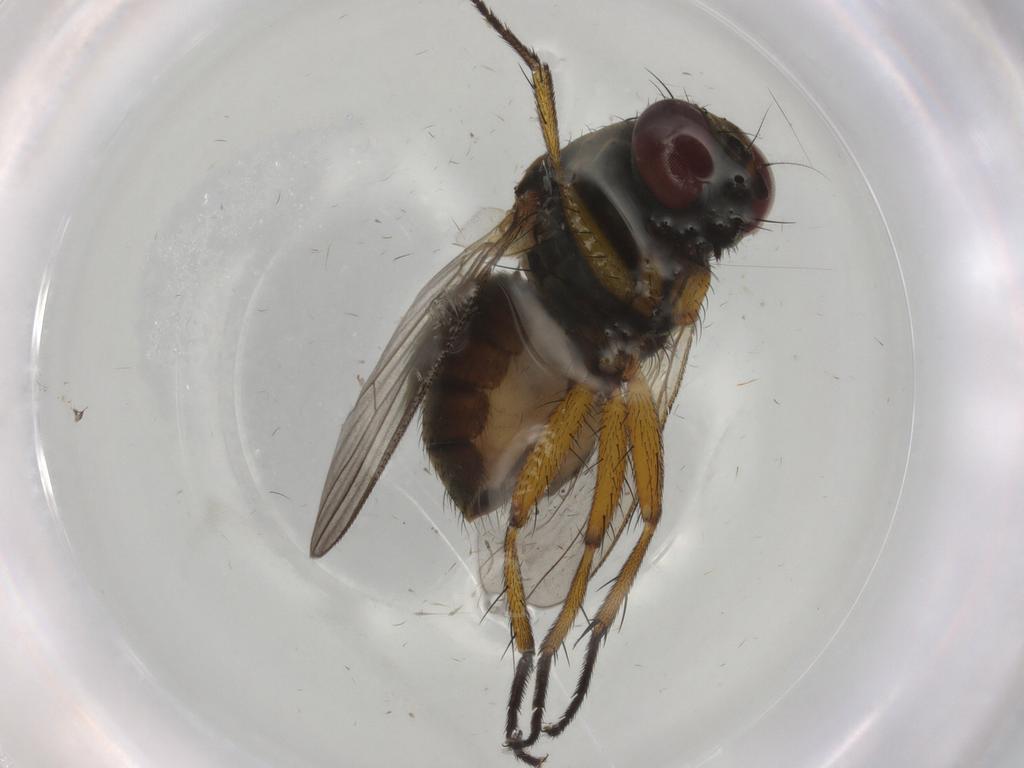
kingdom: Animalia
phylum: Arthropoda
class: Insecta
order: Diptera
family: Muscidae
